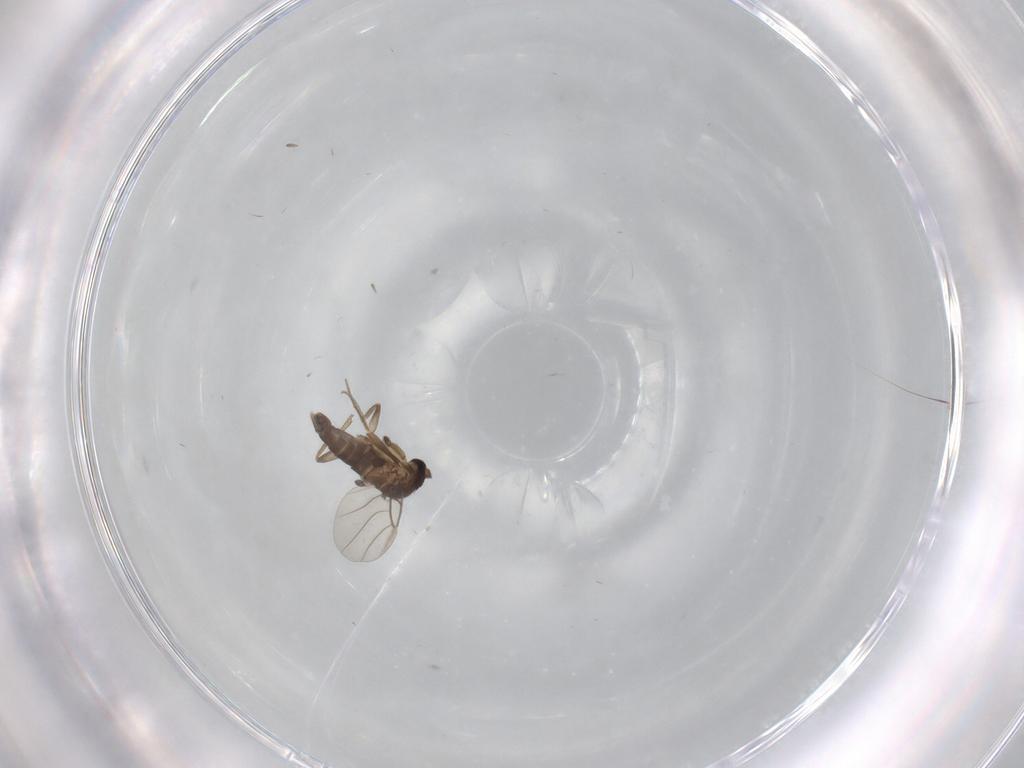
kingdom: Animalia
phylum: Arthropoda
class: Insecta
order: Diptera
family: Phoridae
